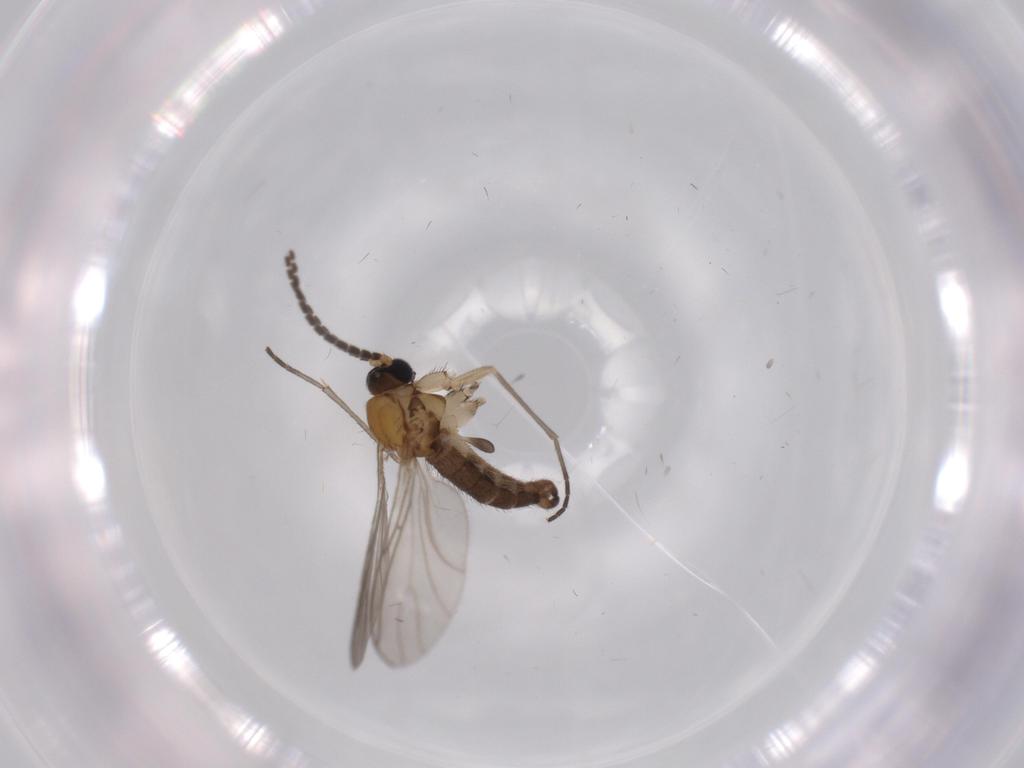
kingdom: Animalia
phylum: Arthropoda
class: Insecta
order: Diptera
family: Sciaridae
